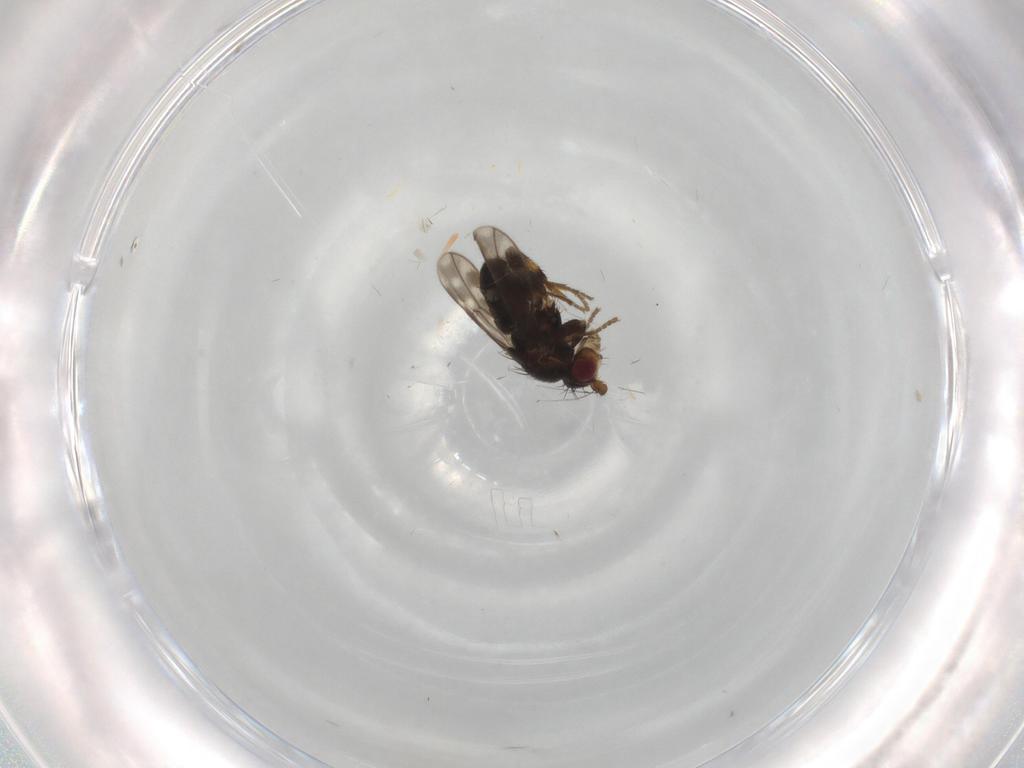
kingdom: Animalia
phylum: Arthropoda
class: Insecta
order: Diptera
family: Sphaeroceridae
